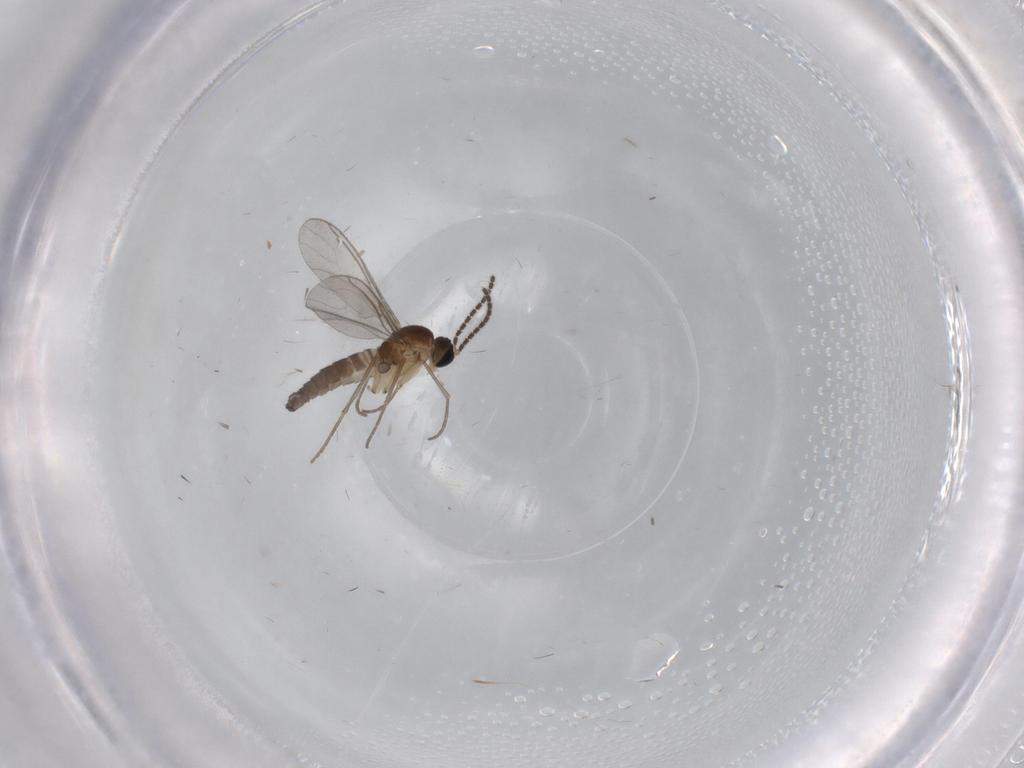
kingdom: Animalia
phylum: Arthropoda
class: Insecta
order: Diptera
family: Sciaridae
